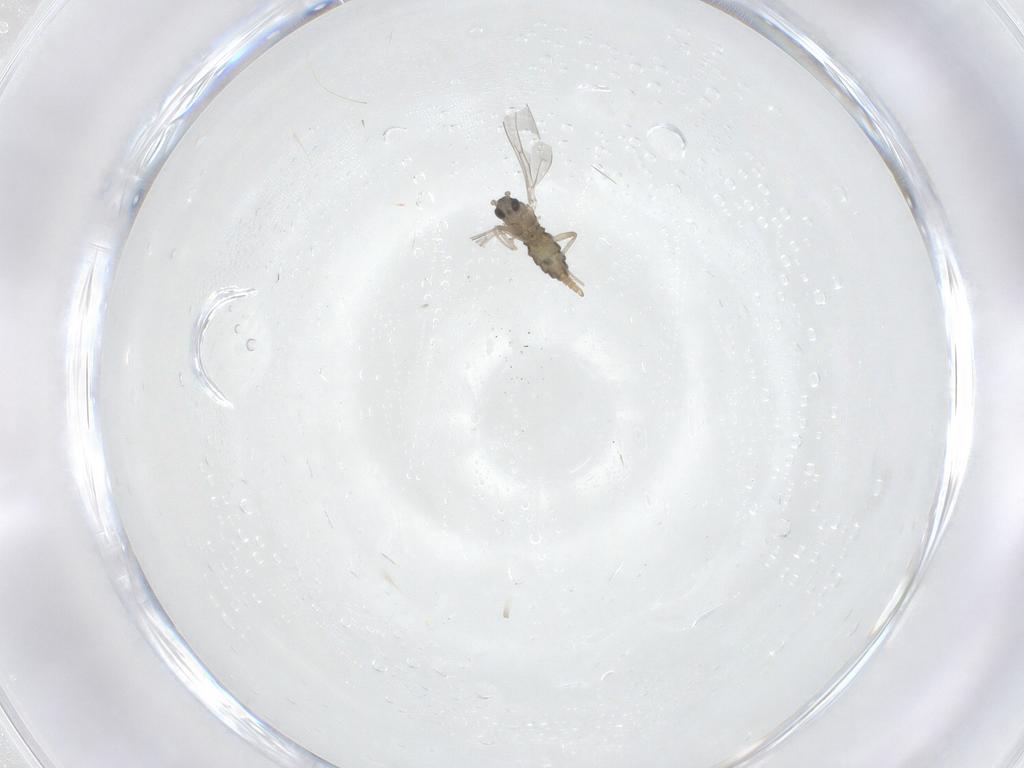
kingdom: Animalia
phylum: Arthropoda
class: Insecta
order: Diptera
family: Cecidomyiidae
